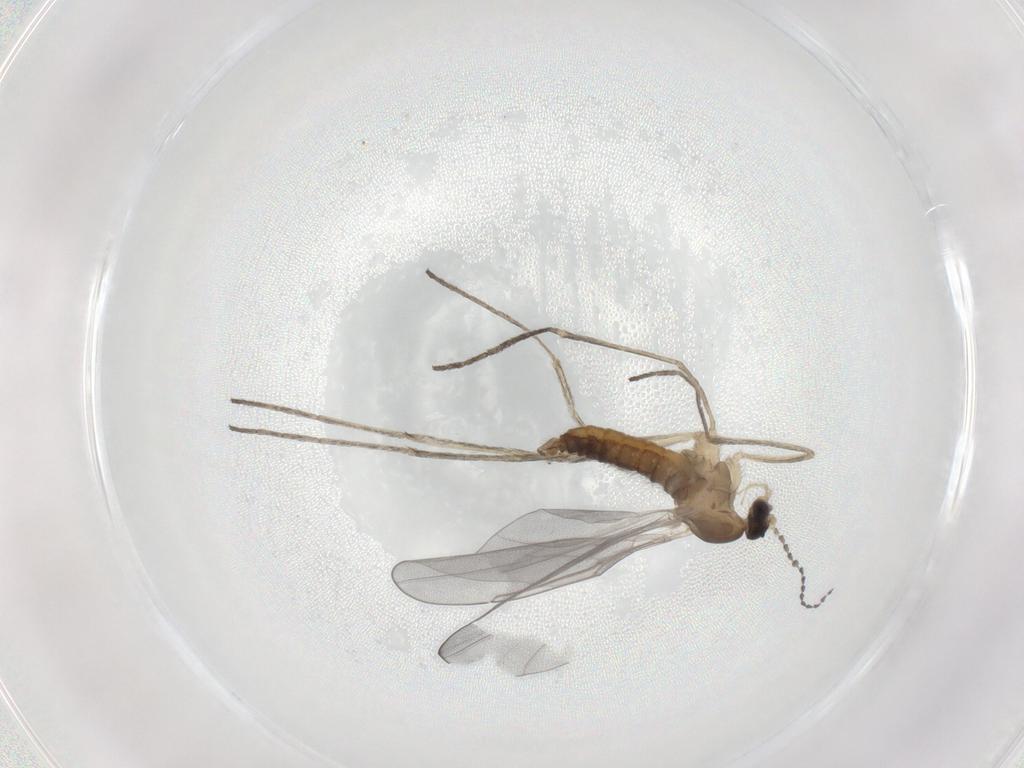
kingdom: Animalia
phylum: Arthropoda
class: Insecta
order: Diptera
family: Cecidomyiidae
